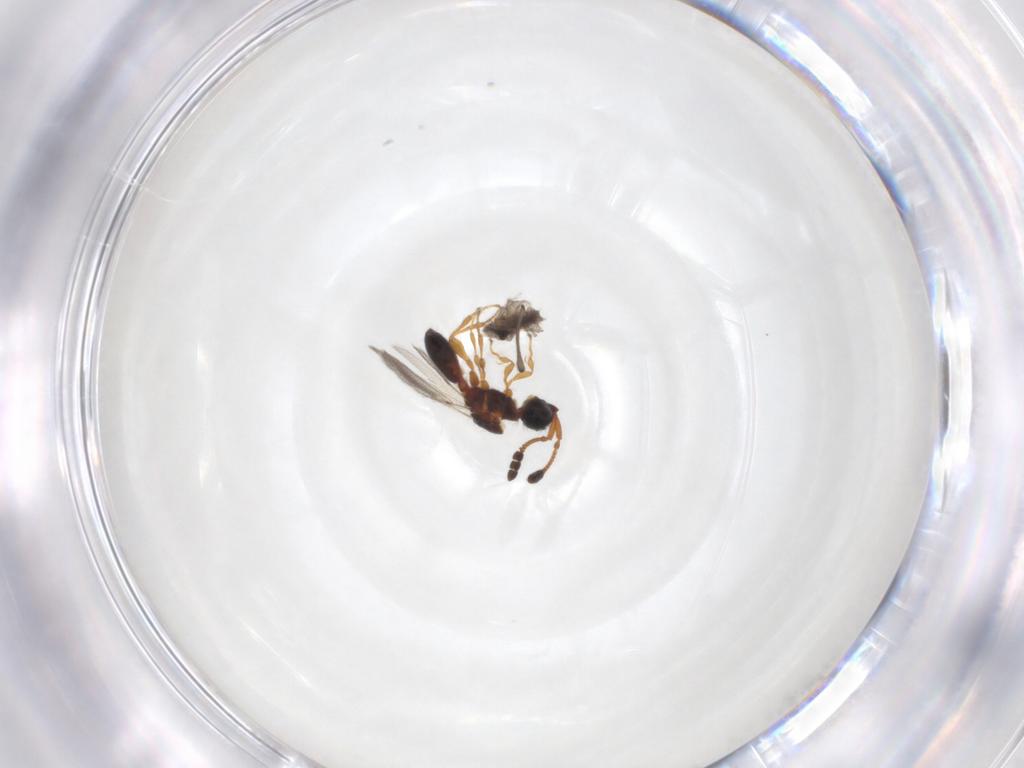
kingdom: Animalia
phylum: Arthropoda
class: Insecta
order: Hymenoptera
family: Diapriidae
